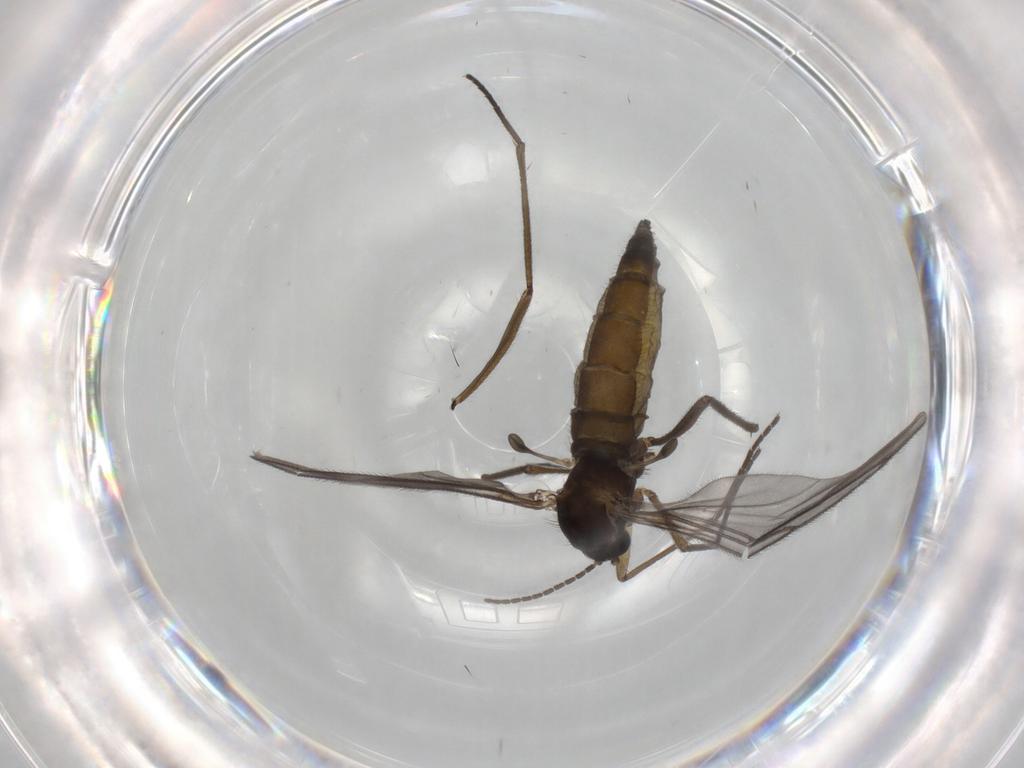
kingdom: Animalia
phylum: Arthropoda
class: Insecta
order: Diptera
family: Sciaridae
